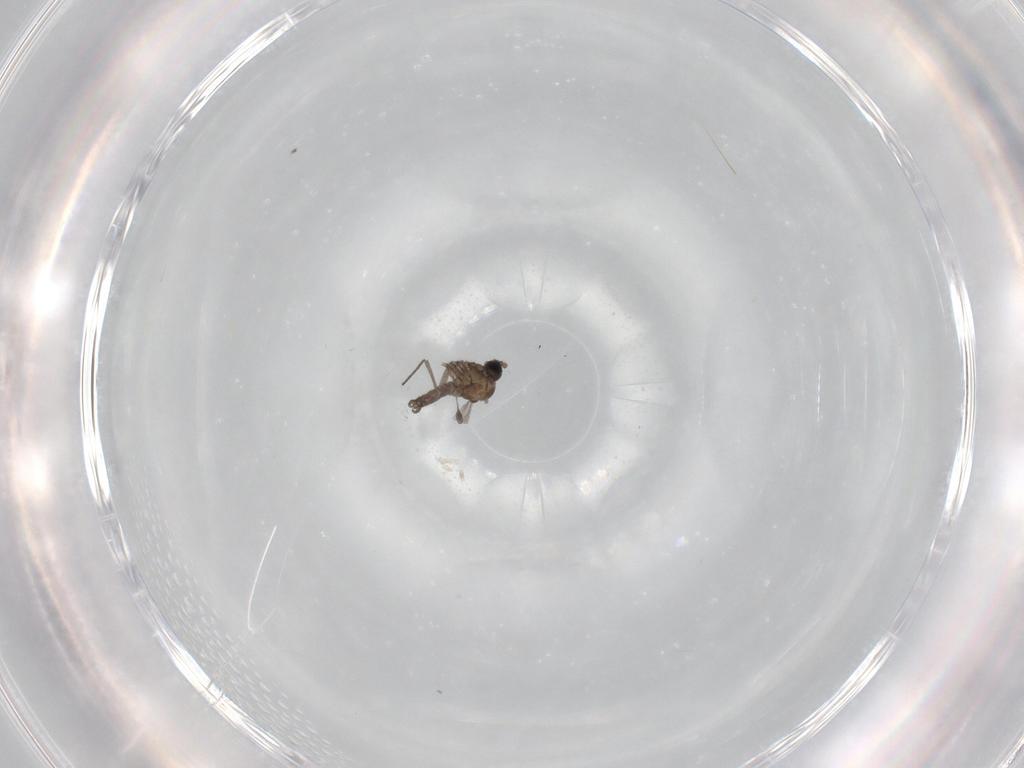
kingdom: Animalia
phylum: Arthropoda
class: Insecta
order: Diptera
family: Sciaridae
